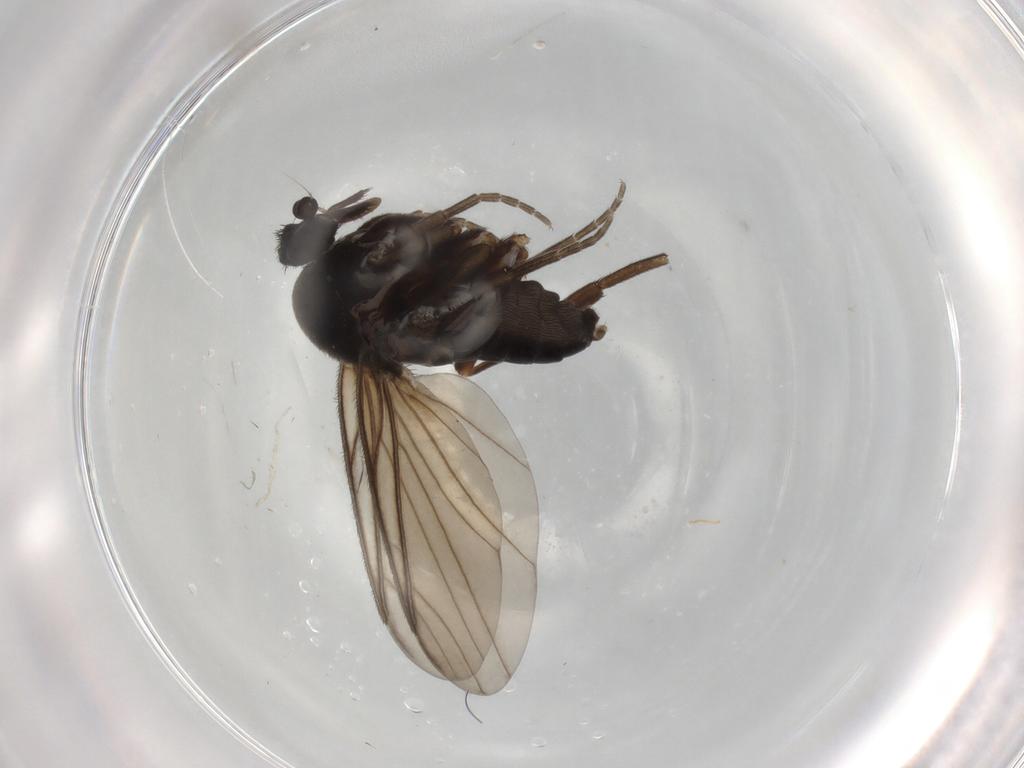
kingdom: Animalia
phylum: Arthropoda
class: Insecta
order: Diptera
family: Phoridae
